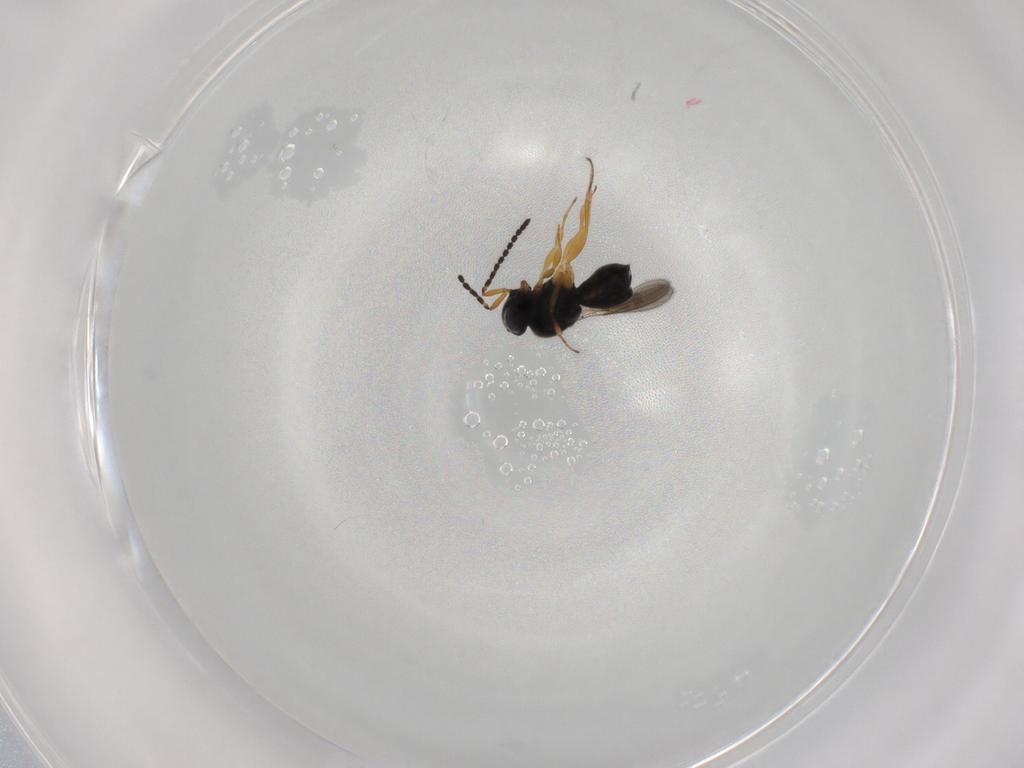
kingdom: Animalia
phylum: Arthropoda
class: Insecta
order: Hymenoptera
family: Scelionidae
